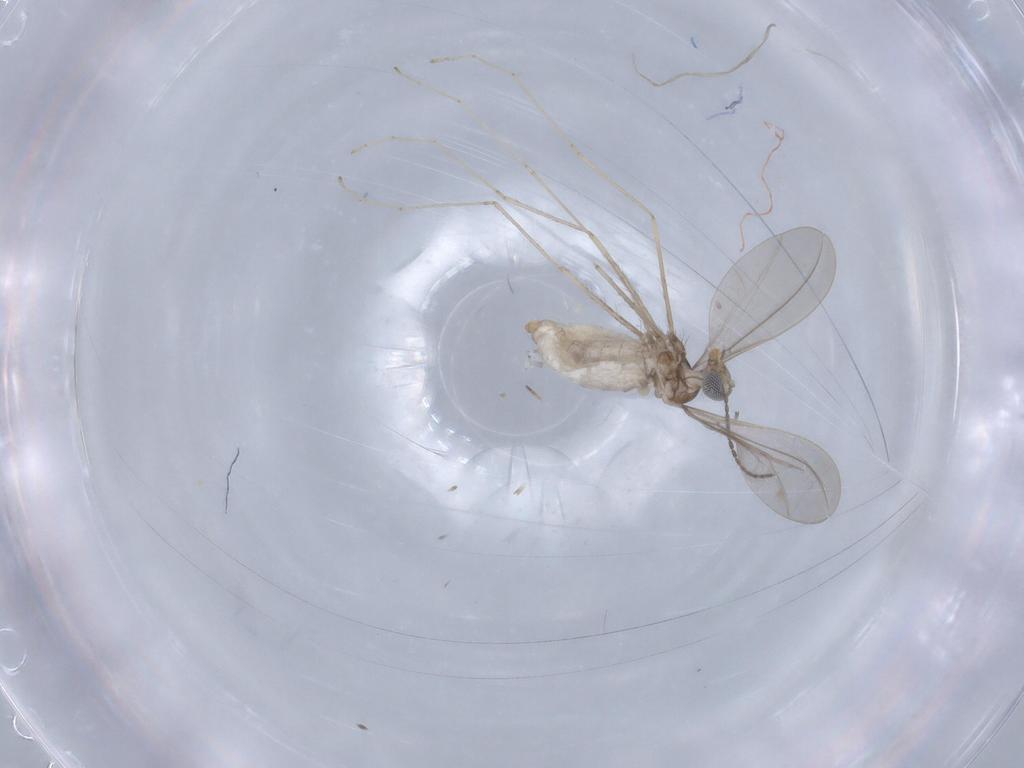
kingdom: Animalia
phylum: Arthropoda
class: Insecta
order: Diptera
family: Cecidomyiidae
